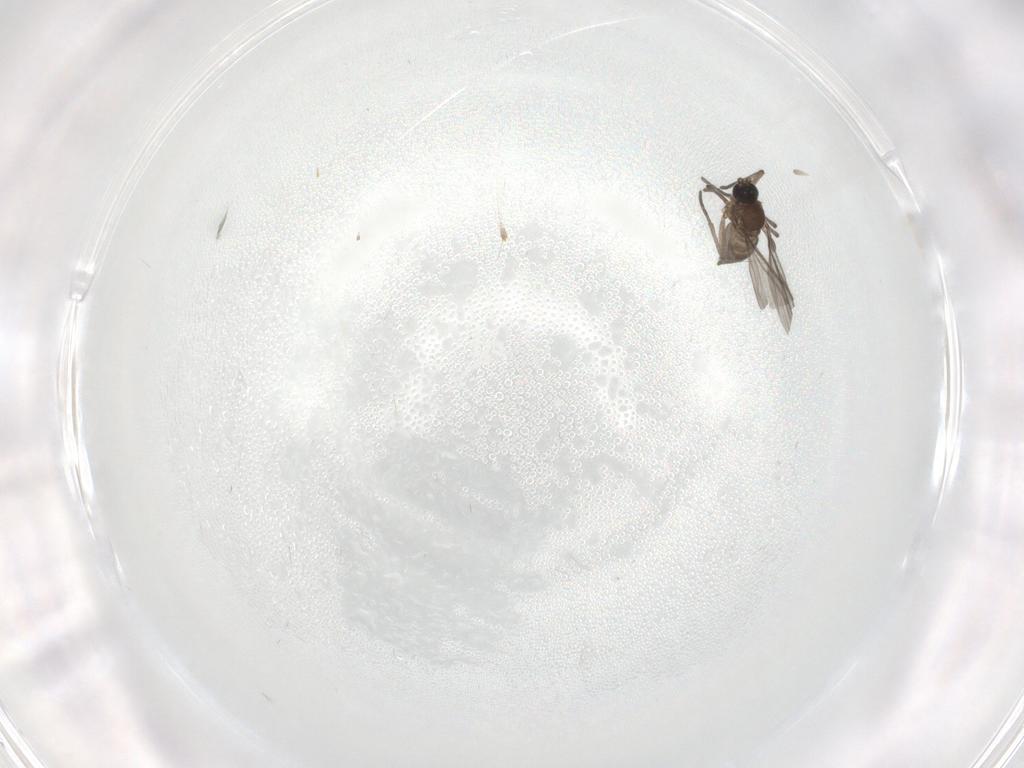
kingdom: Animalia
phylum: Arthropoda
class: Insecta
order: Diptera
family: Sciaridae
